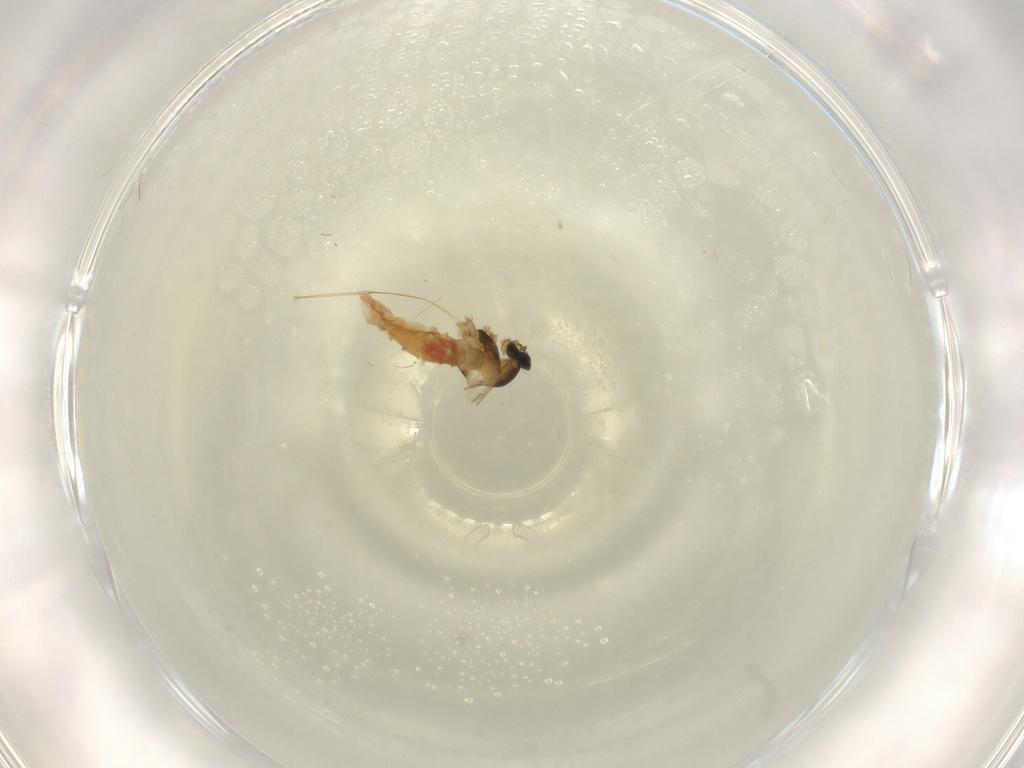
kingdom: Animalia
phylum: Arthropoda
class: Insecta
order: Diptera
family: Cecidomyiidae
